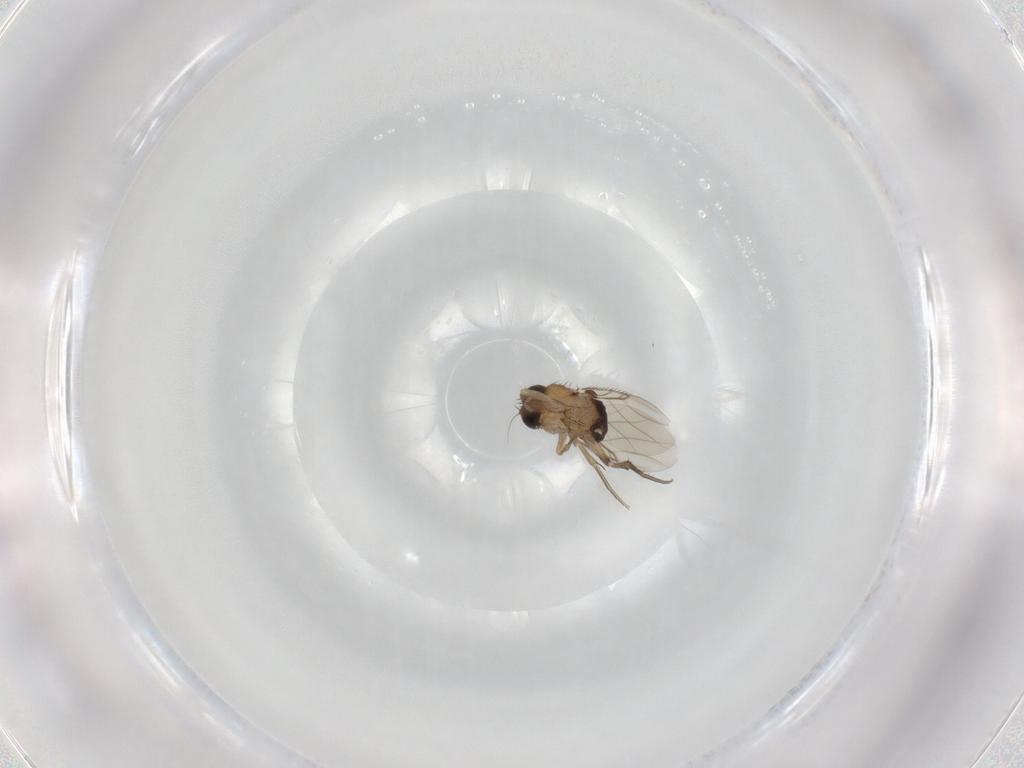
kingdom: Animalia
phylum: Arthropoda
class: Insecta
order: Diptera
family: Phoridae
